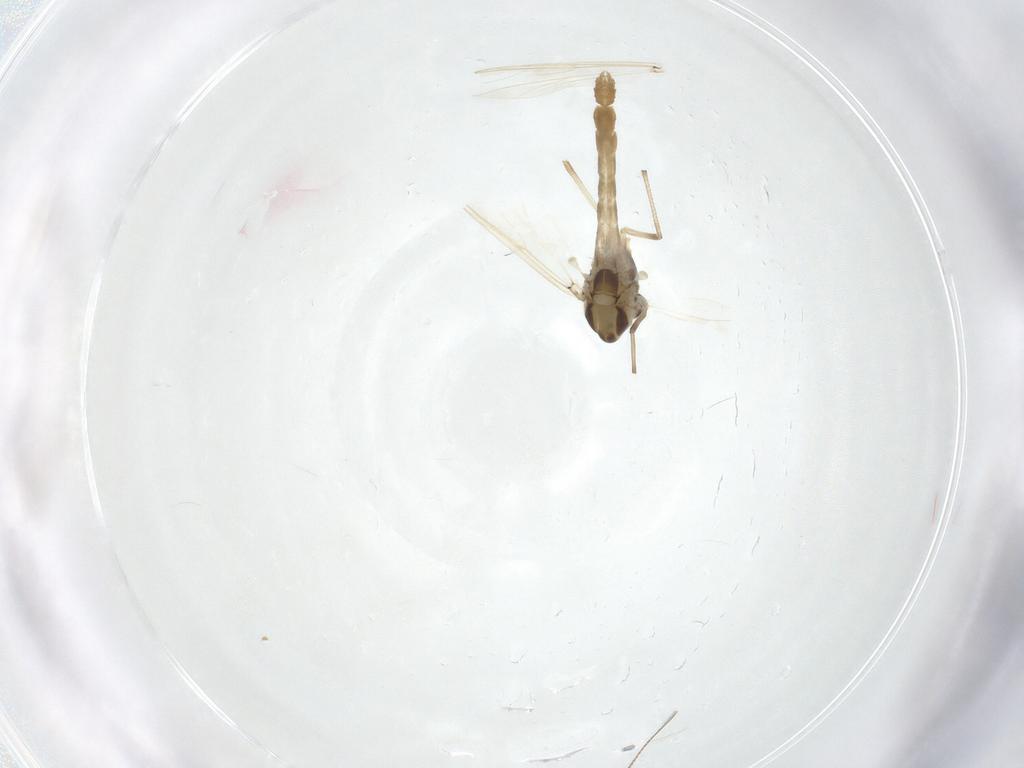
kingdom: Animalia
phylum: Arthropoda
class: Insecta
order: Diptera
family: Chironomidae
